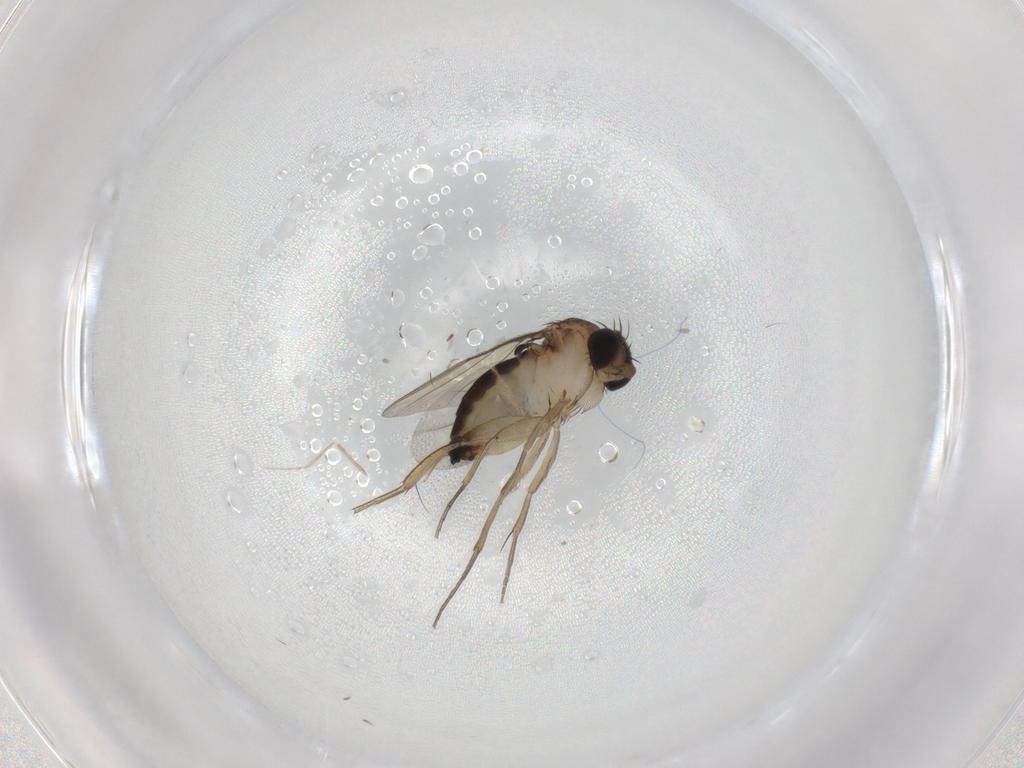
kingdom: Animalia
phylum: Arthropoda
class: Insecta
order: Diptera
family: Phoridae
